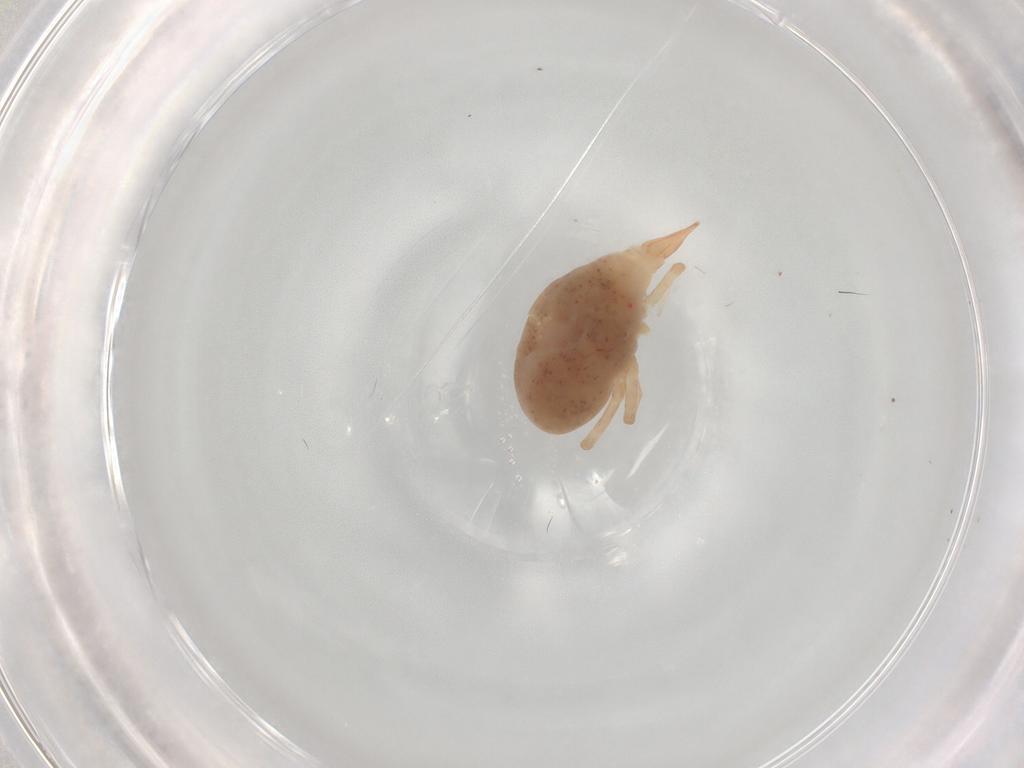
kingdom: Animalia
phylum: Arthropoda
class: Arachnida
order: Trombidiformes
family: Bdellidae
